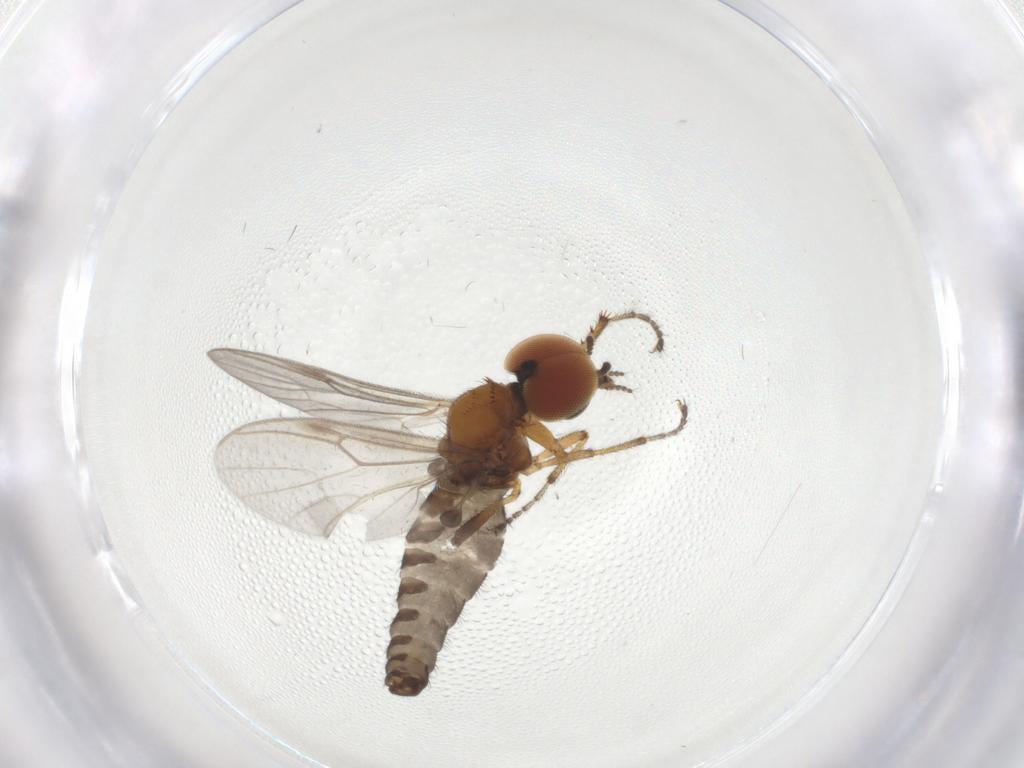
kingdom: Animalia
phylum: Arthropoda
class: Insecta
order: Diptera
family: Bibionidae
